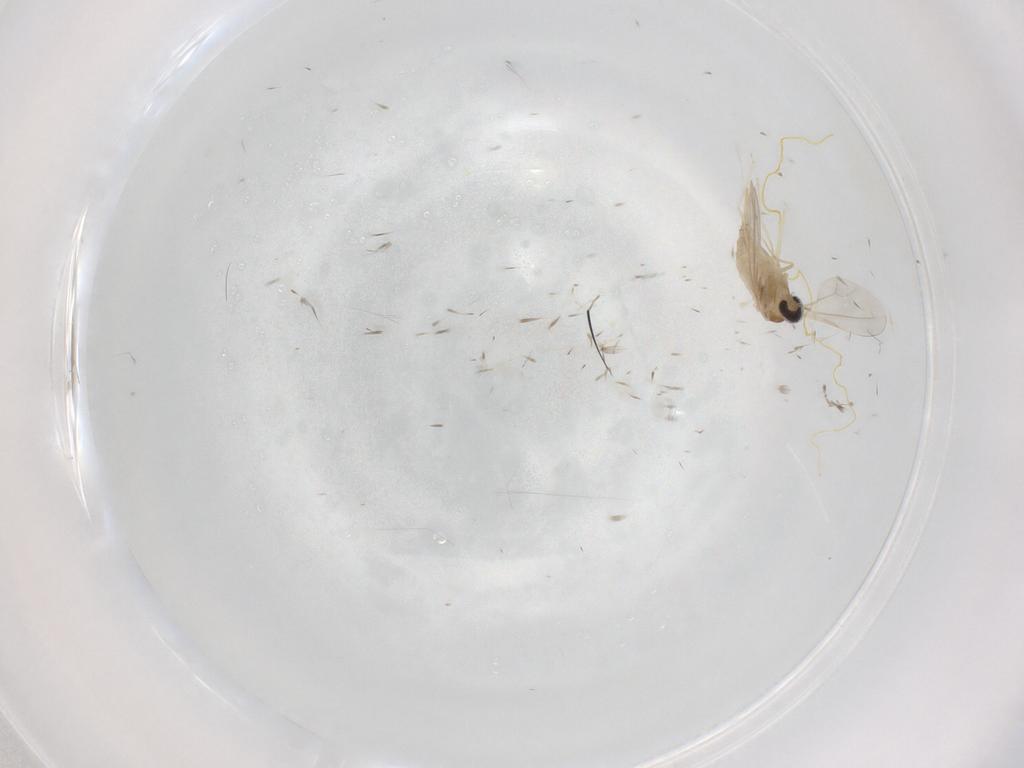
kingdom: Animalia
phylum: Arthropoda
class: Insecta
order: Diptera
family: Cecidomyiidae
